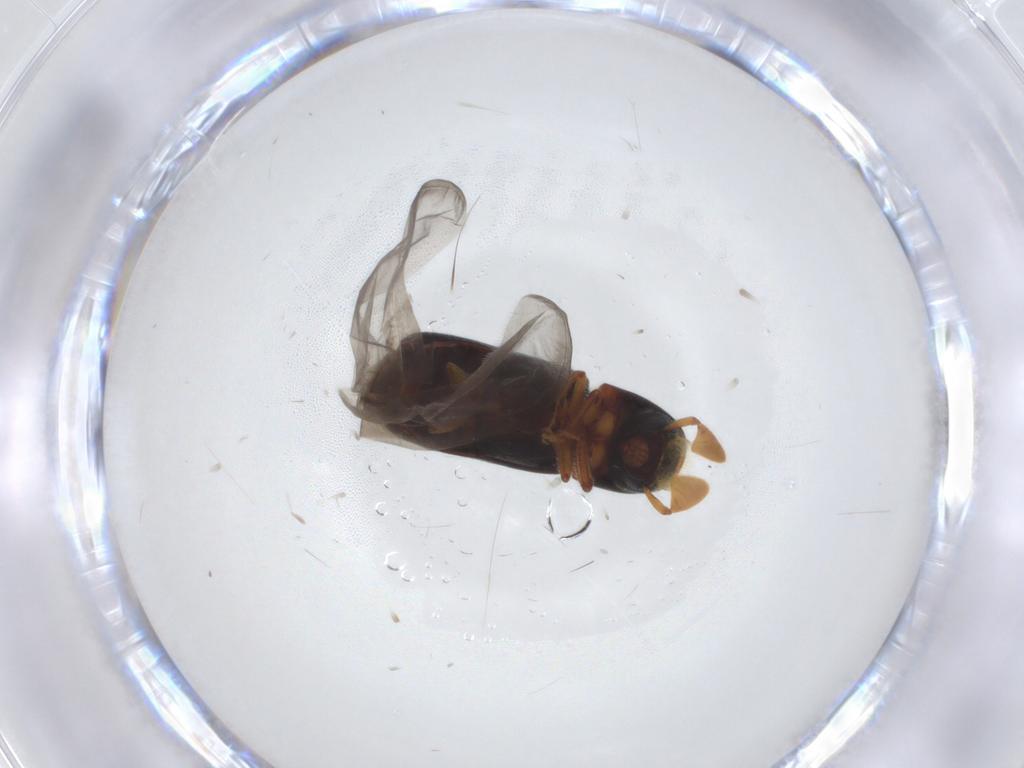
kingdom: Animalia
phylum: Arthropoda
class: Insecta
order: Coleoptera
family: Curculionidae
